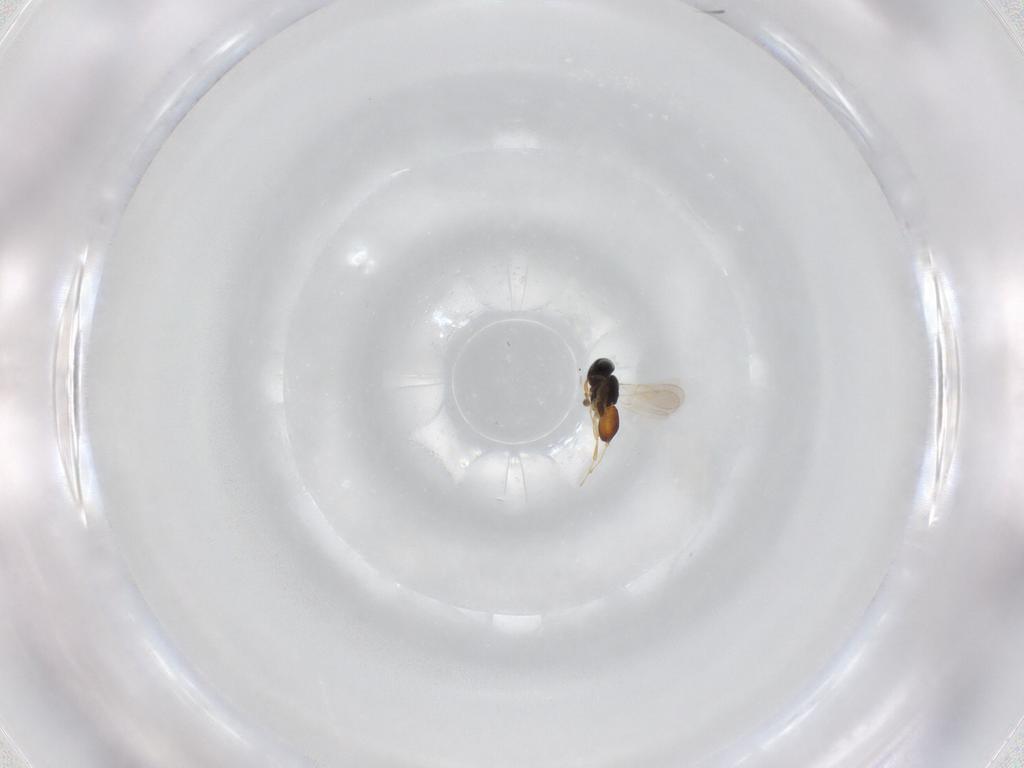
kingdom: Animalia
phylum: Arthropoda
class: Insecta
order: Hymenoptera
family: Scelionidae
